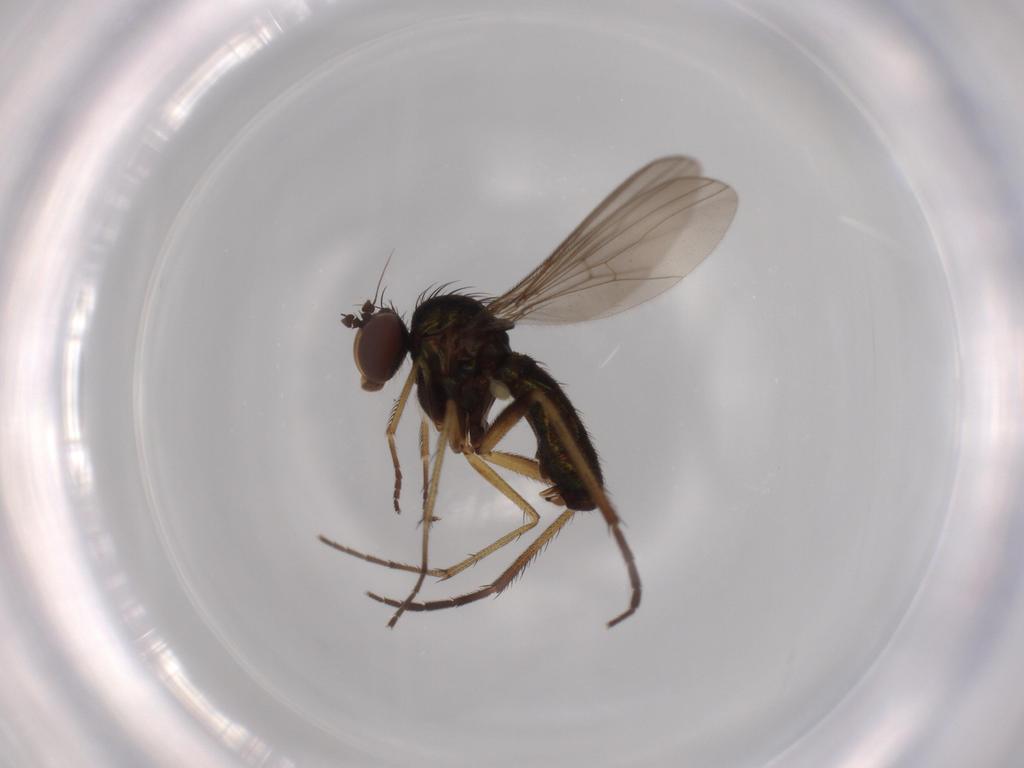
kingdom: Animalia
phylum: Arthropoda
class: Insecta
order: Diptera
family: Dolichopodidae
